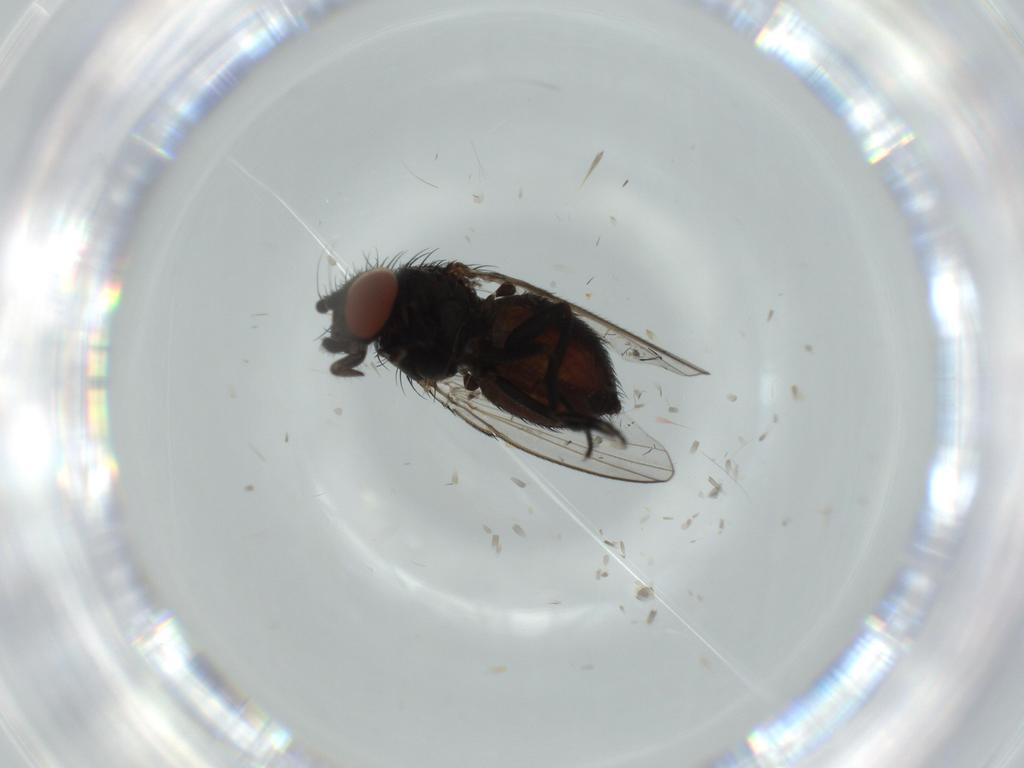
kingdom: Animalia
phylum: Arthropoda
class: Insecta
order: Diptera
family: Milichiidae
